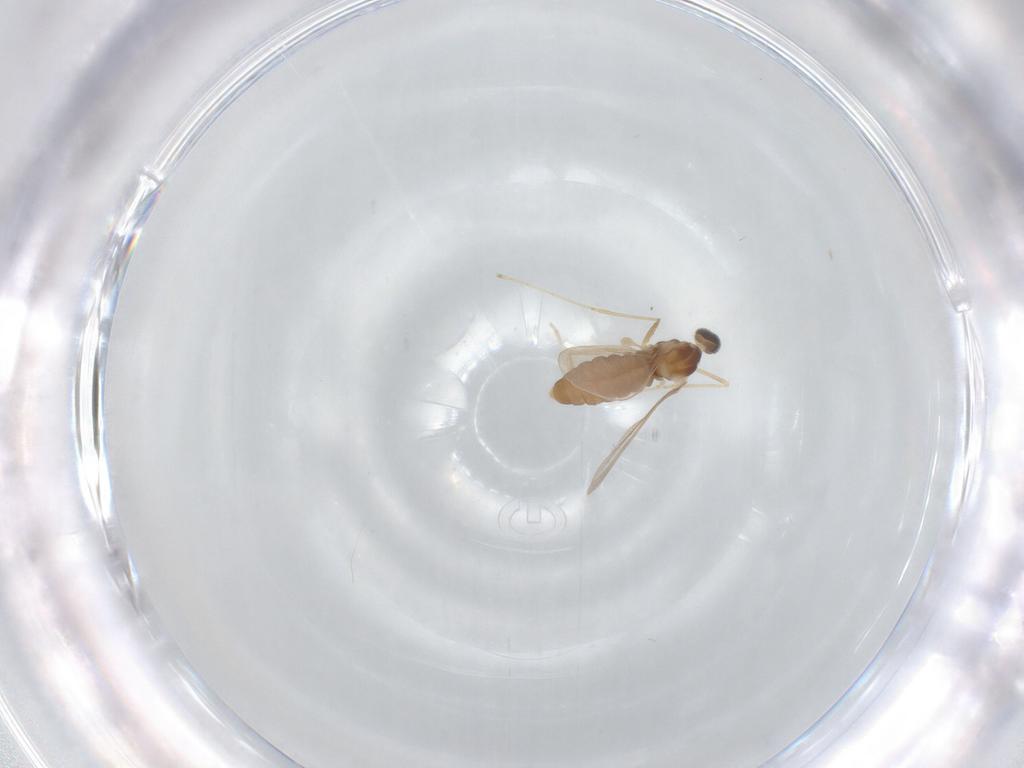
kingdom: Animalia
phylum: Arthropoda
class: Insecta
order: Diptera
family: Cecidomyiidae
